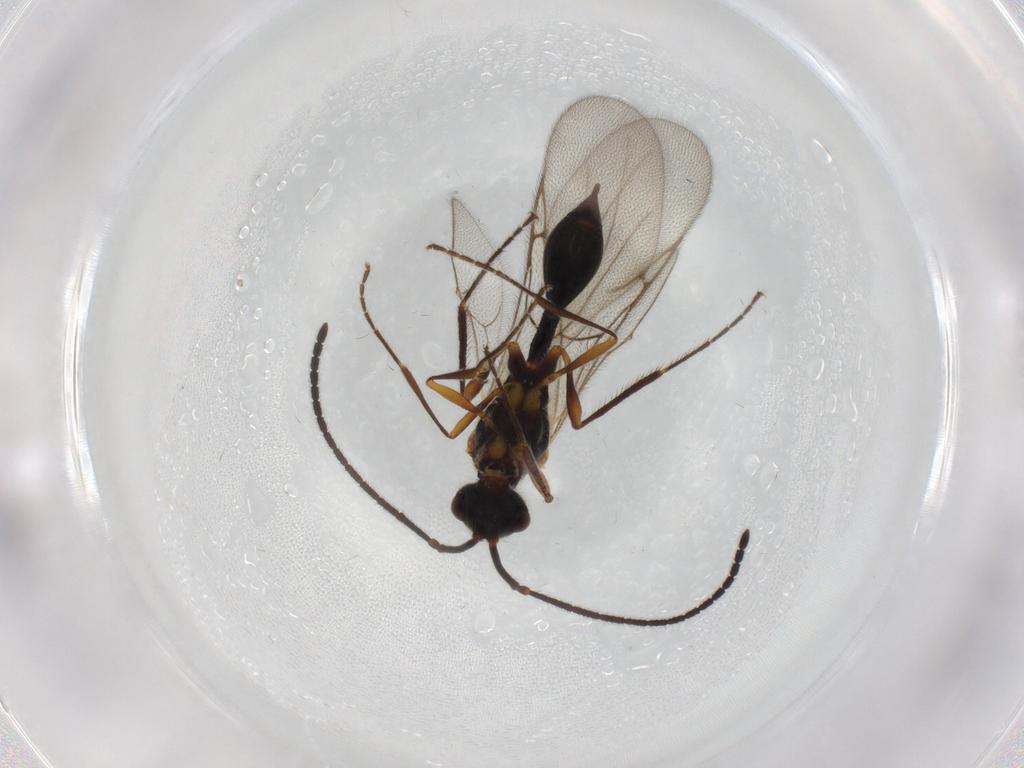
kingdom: Animalia
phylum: Arthropoda
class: Insecta
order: Hymenoptera
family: Diapriidae
